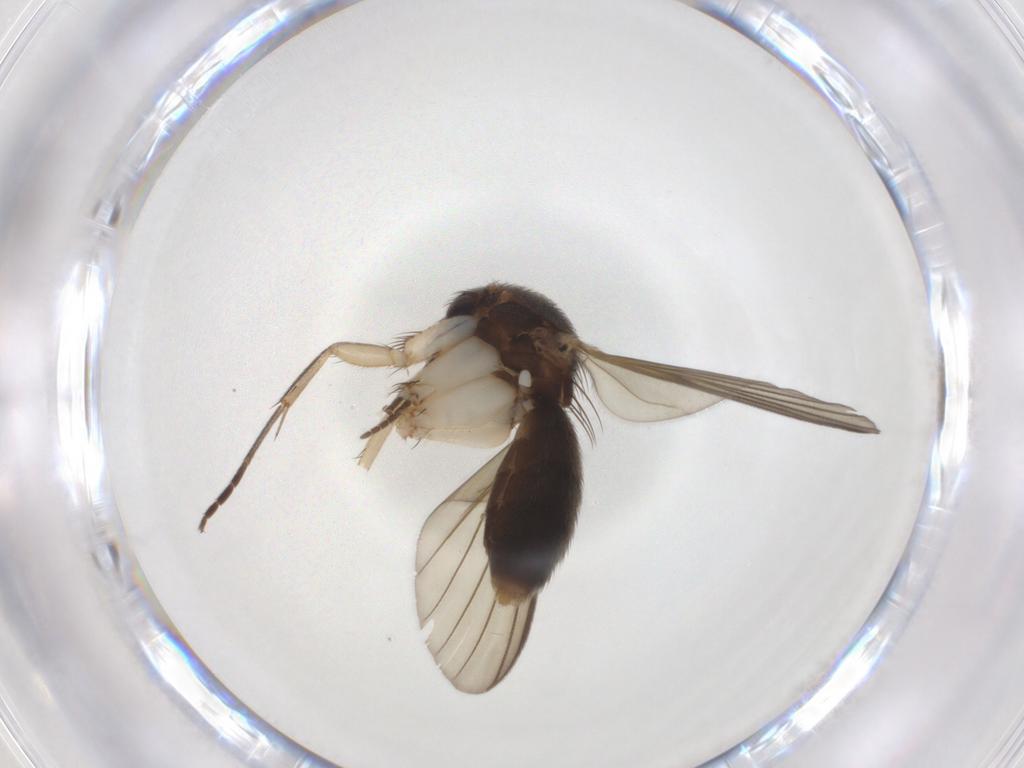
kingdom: Animalia
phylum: Arthropoda
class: Insecta
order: Diptera
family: Mycetophilidae
